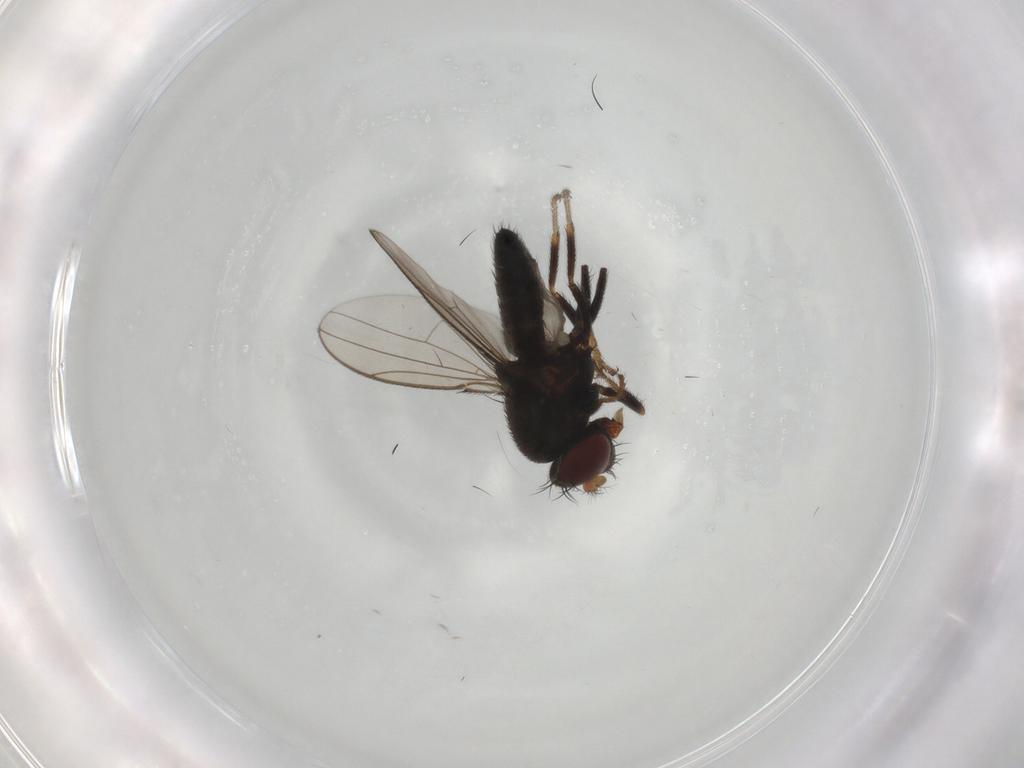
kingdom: Animalia
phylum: Arthropoda
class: Insecta
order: Diptera
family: Ephydridae
